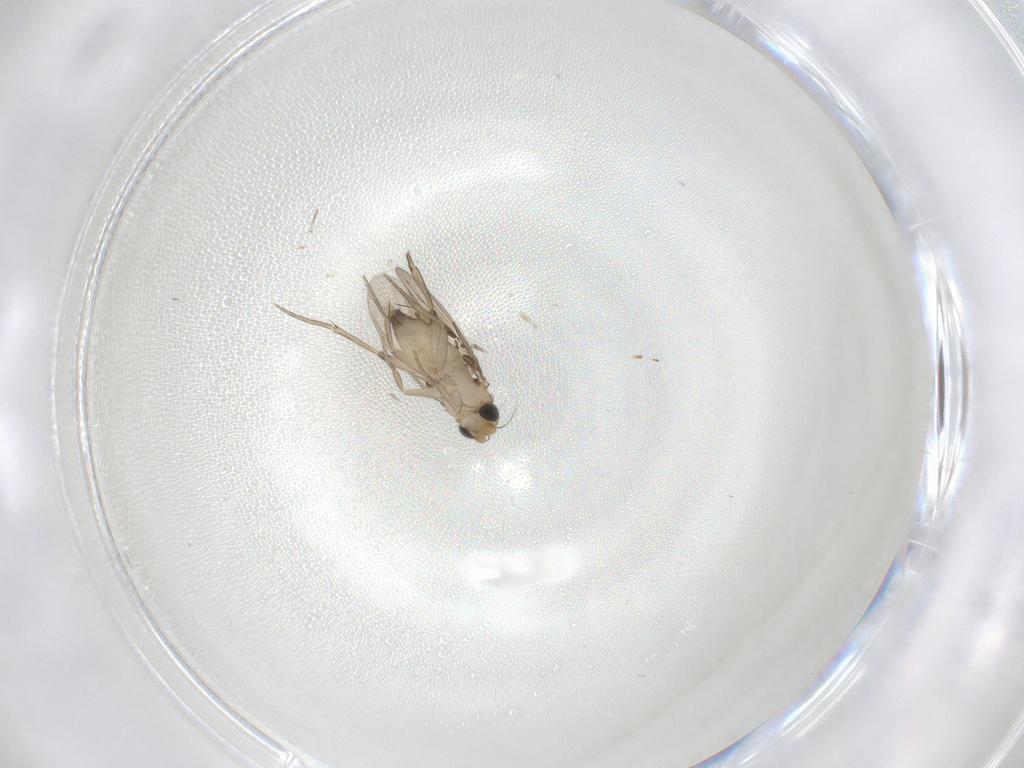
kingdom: Animalia
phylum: Arthropoda
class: Insecta
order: Diptera
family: Phoridae
